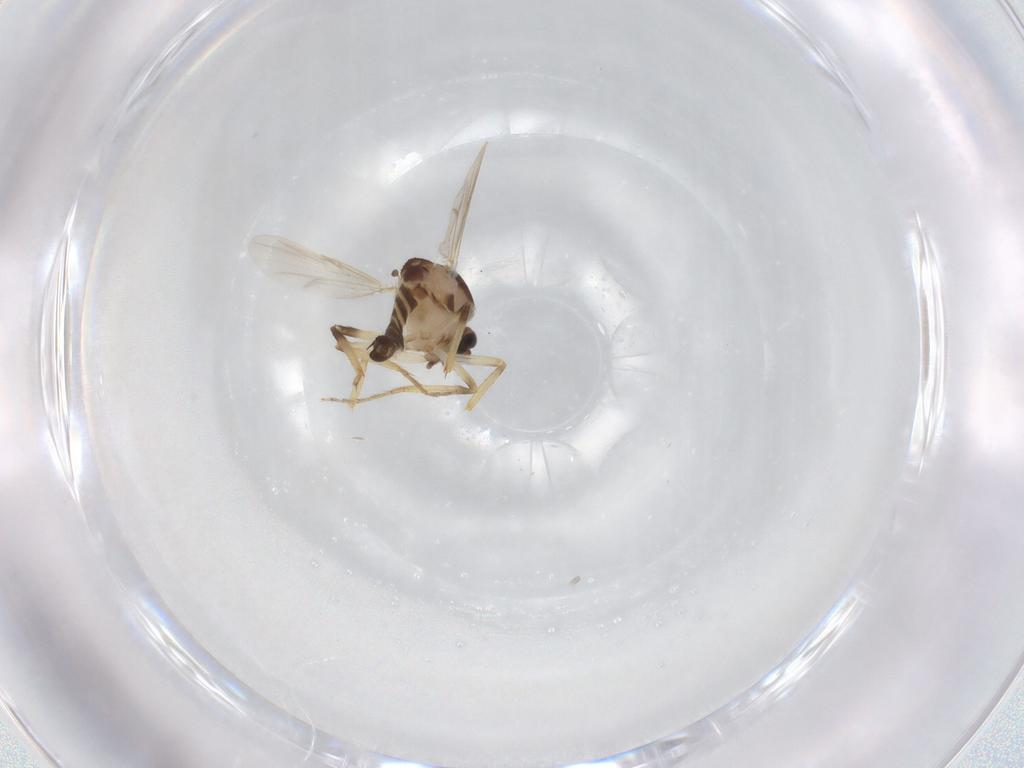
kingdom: Animalia
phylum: Arthropoda
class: Insecta
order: Diptera
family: Ceratopogonidae
